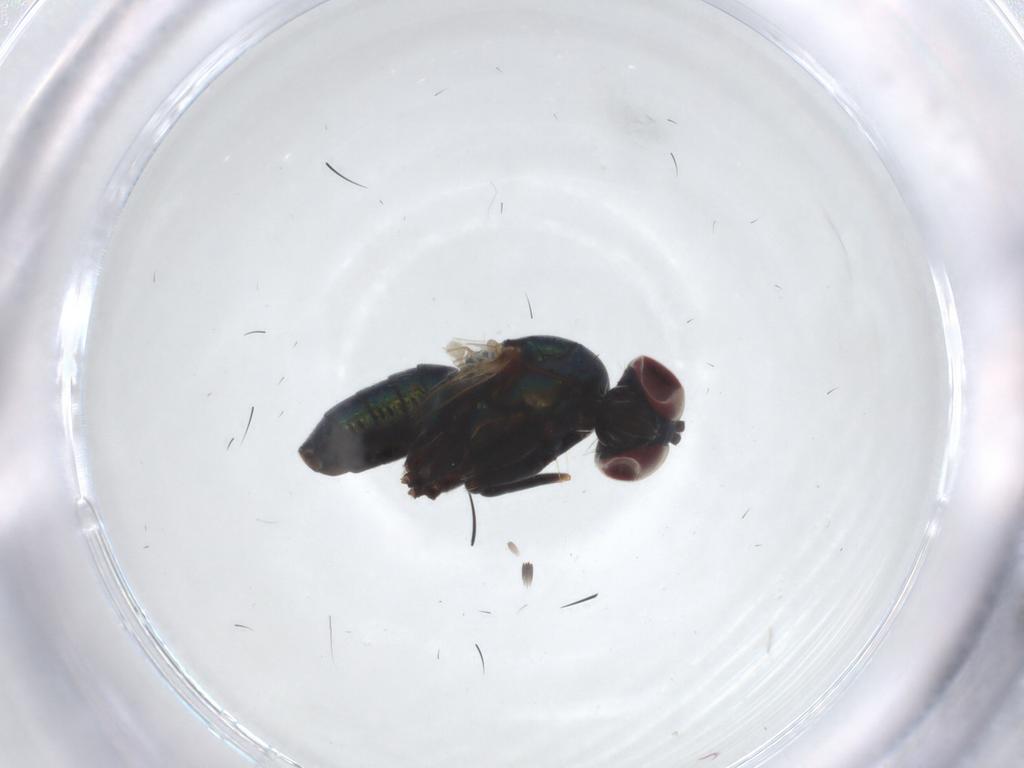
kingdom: Animalia
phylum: Arthropoda
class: Insecta
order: Diptera
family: Dolichopodidae
